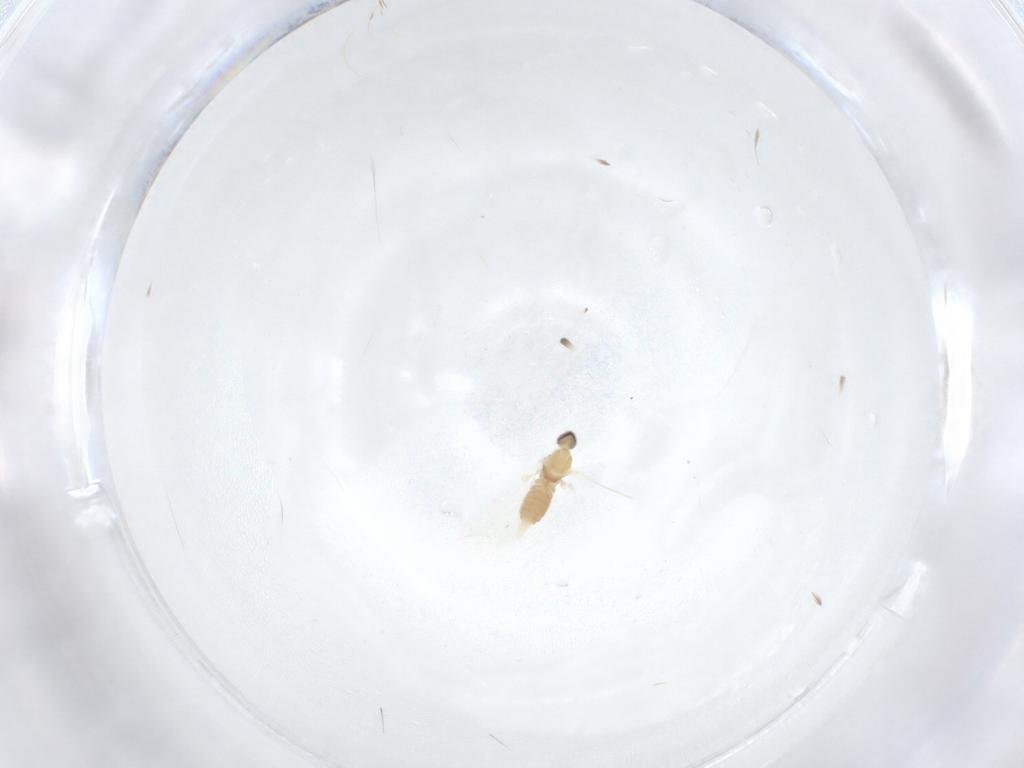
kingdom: Animalia
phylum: Arthropoda
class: Insecta
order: Diptera
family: Cecidomyiidae
